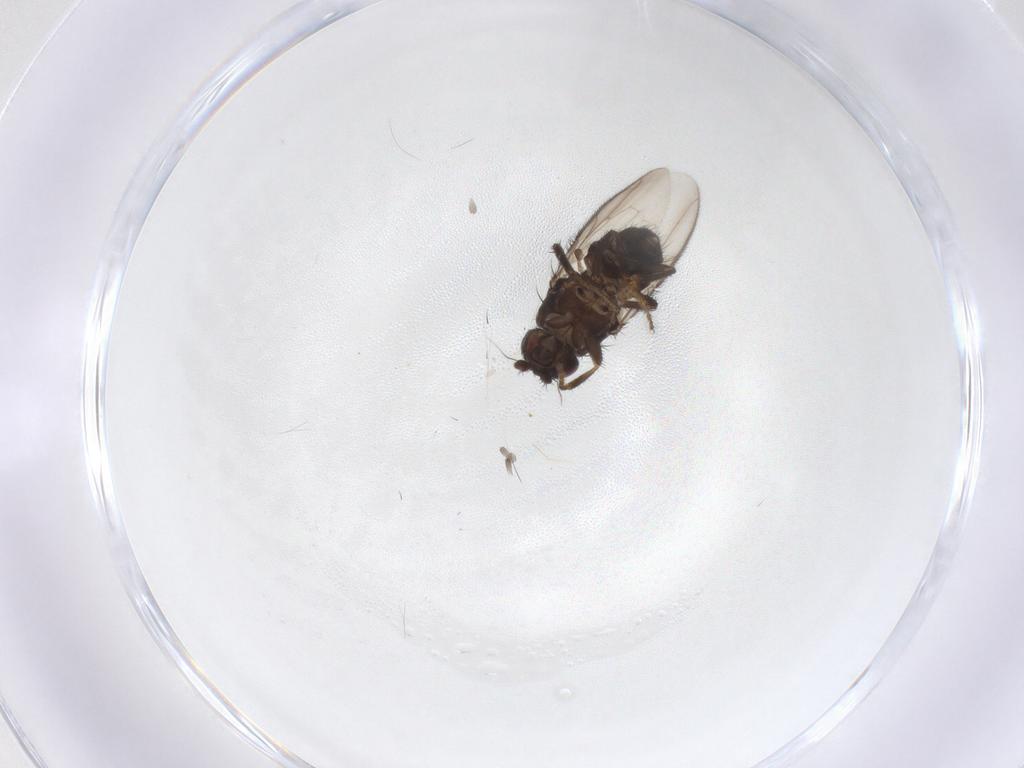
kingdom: Animalia
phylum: Arthropoda
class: Insecta
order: Diptera
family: Sphaeroceridae
